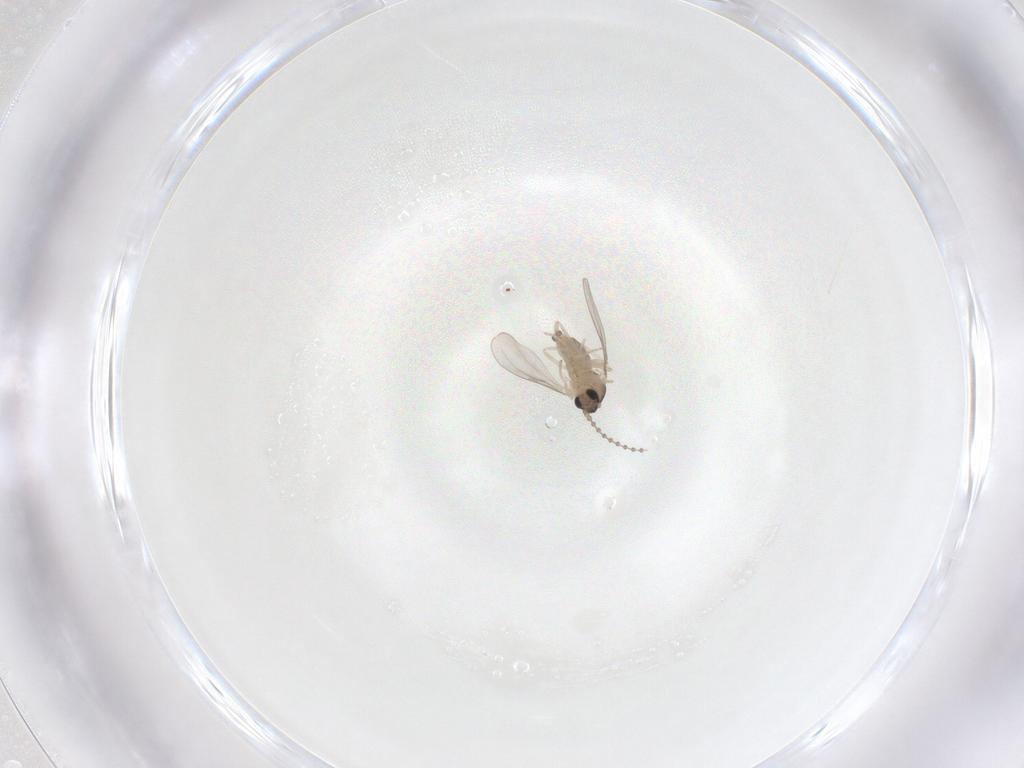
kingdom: Animalia
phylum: Arthropoda
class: Insecta
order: Diptera
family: Cecidomyiidae
